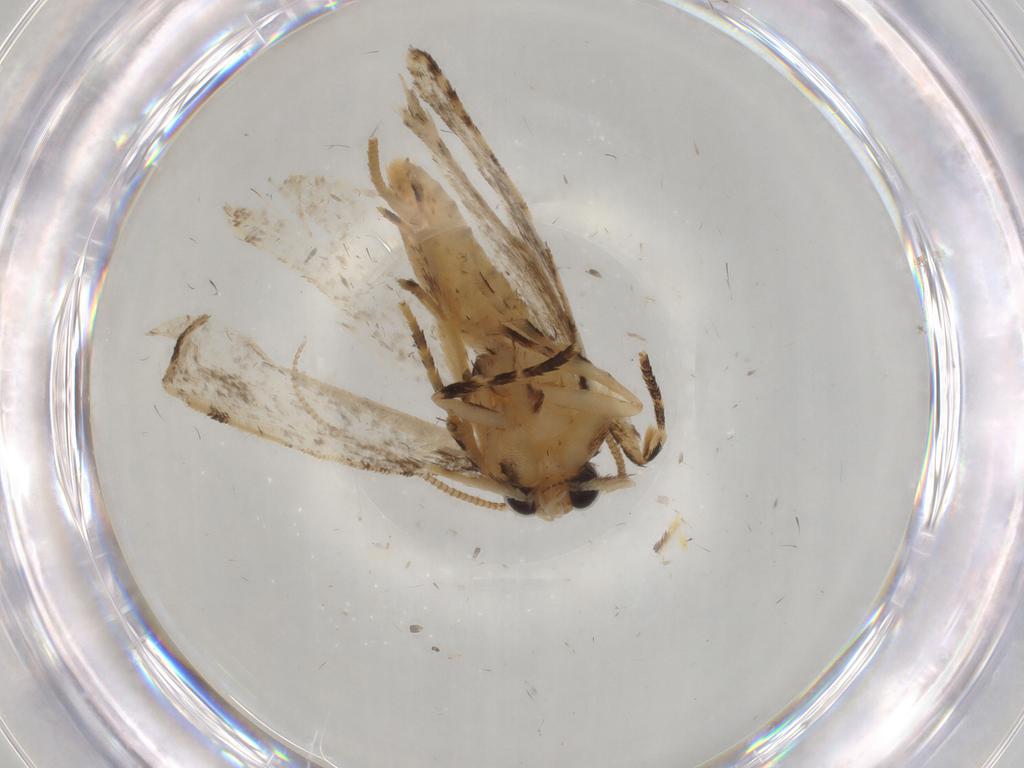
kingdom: Animalia
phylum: Arthropoda
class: Insecta
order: Lepidoptera
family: Tineidae
